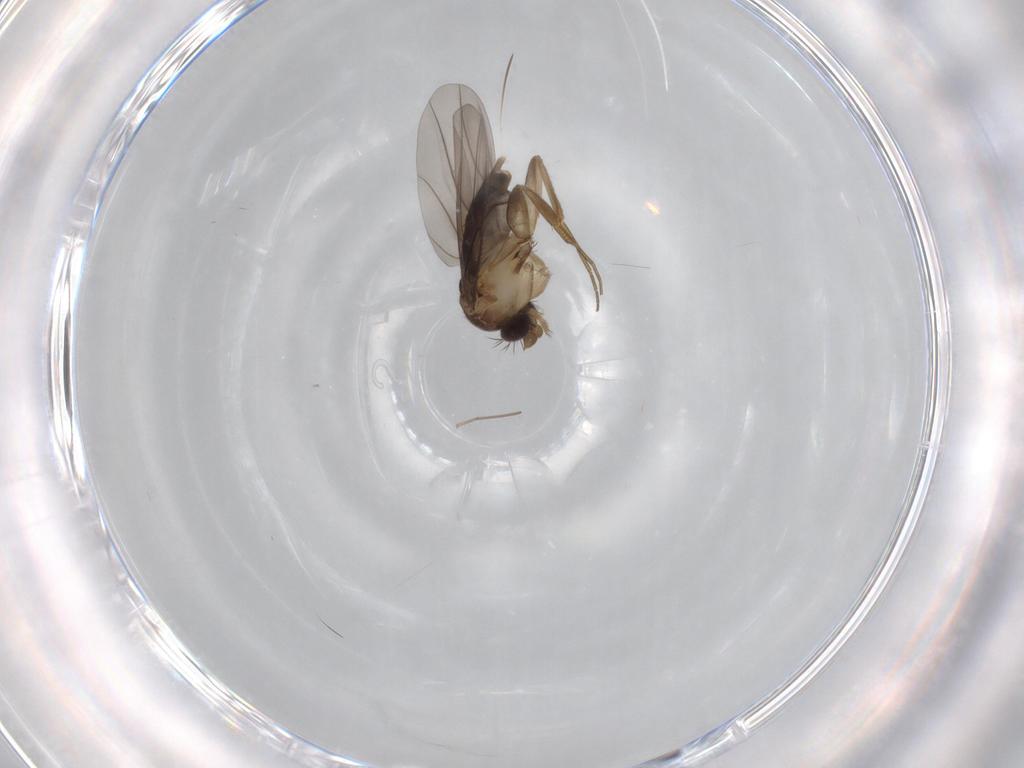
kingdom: Animalia
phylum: Arthropoda
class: Insecta
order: Diptera
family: Phoridae
